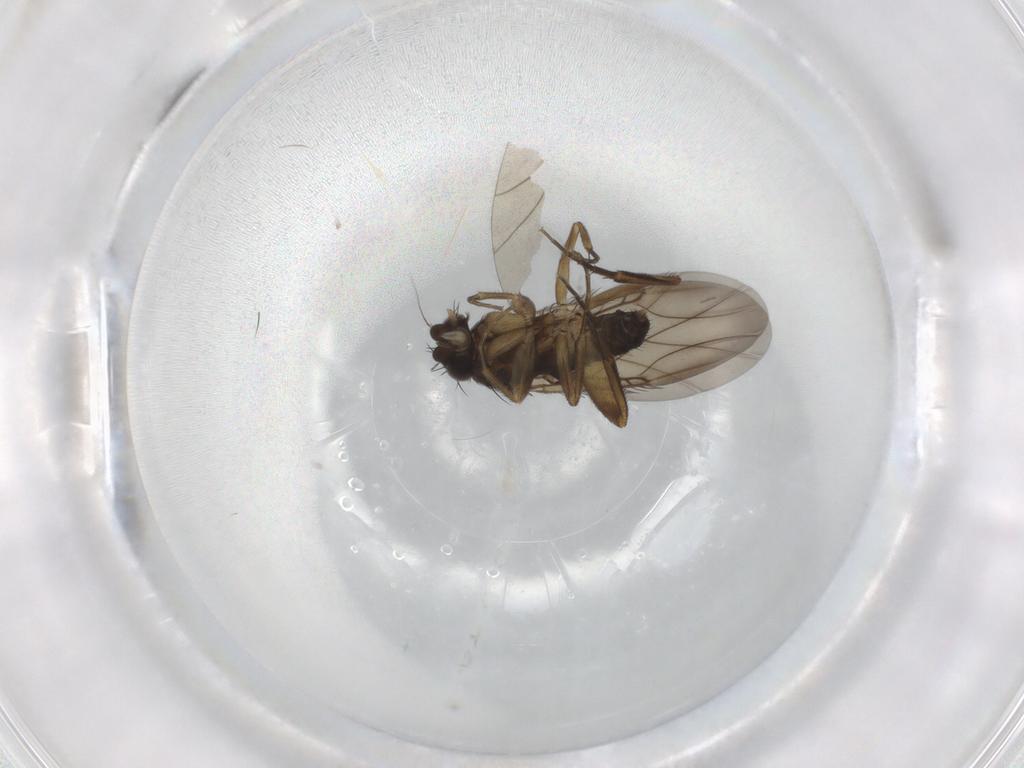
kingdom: Animalia
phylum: Arthropoda
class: Insecta
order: Diptera
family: Phoridae
